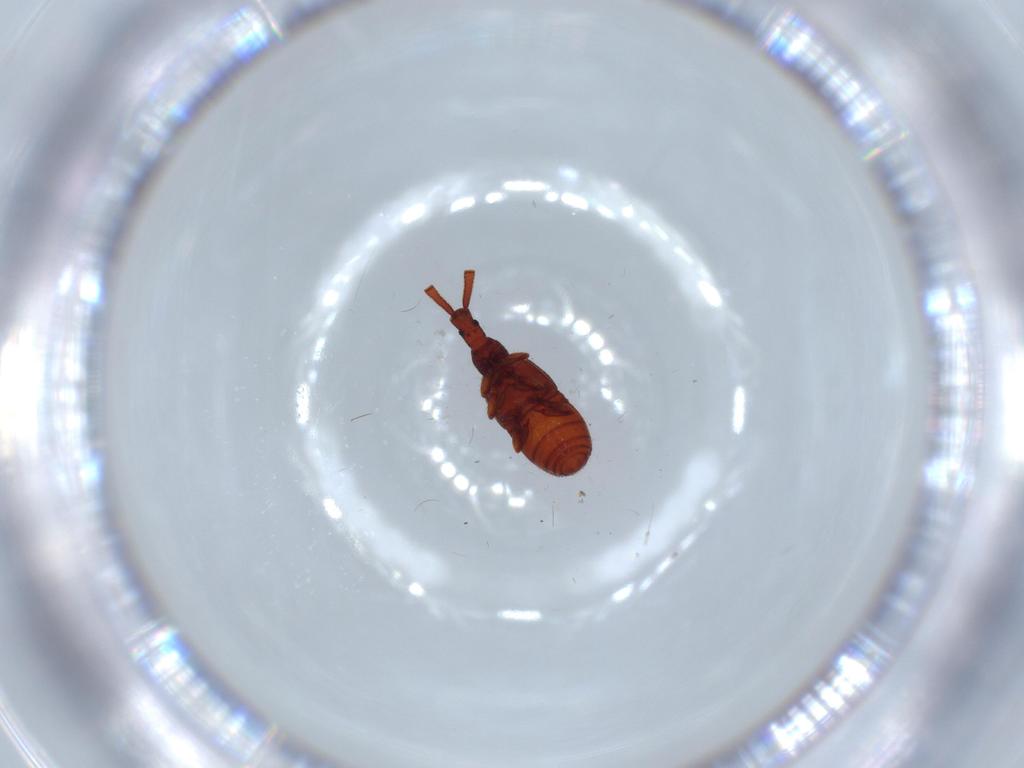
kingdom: Animalia
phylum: Arthropoda
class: Insecta
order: Coleoptera
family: Staphylinidae
